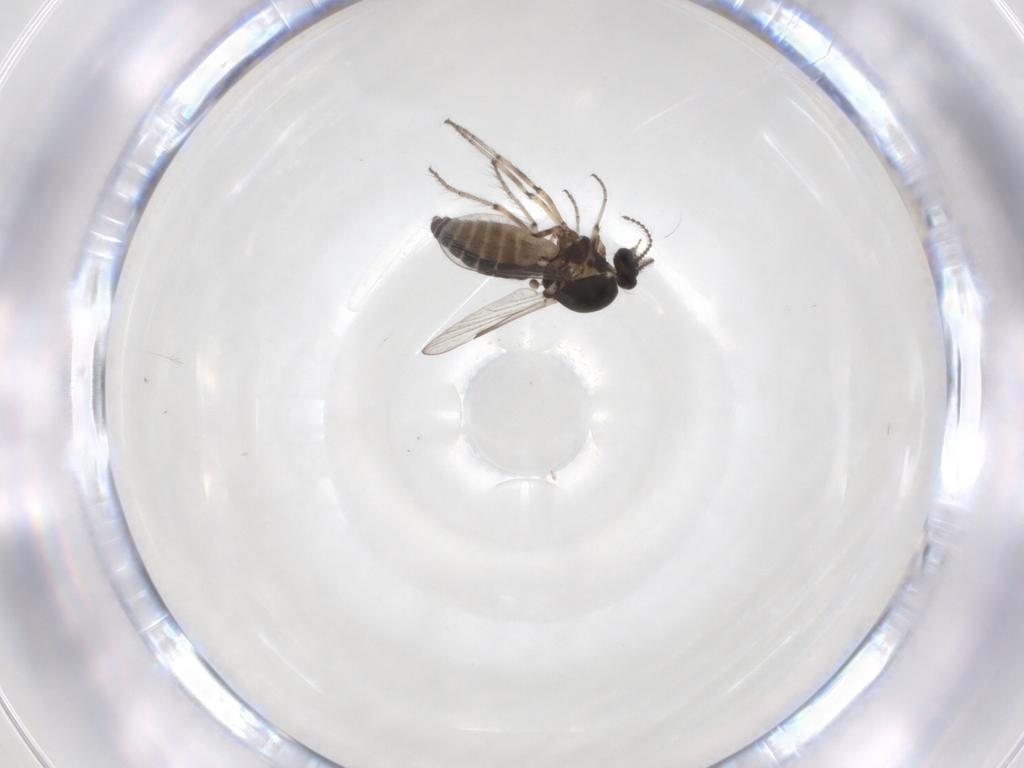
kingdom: Animalia
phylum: Arthropoda
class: Insecta
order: Diptera
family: Ceratopogonidae
